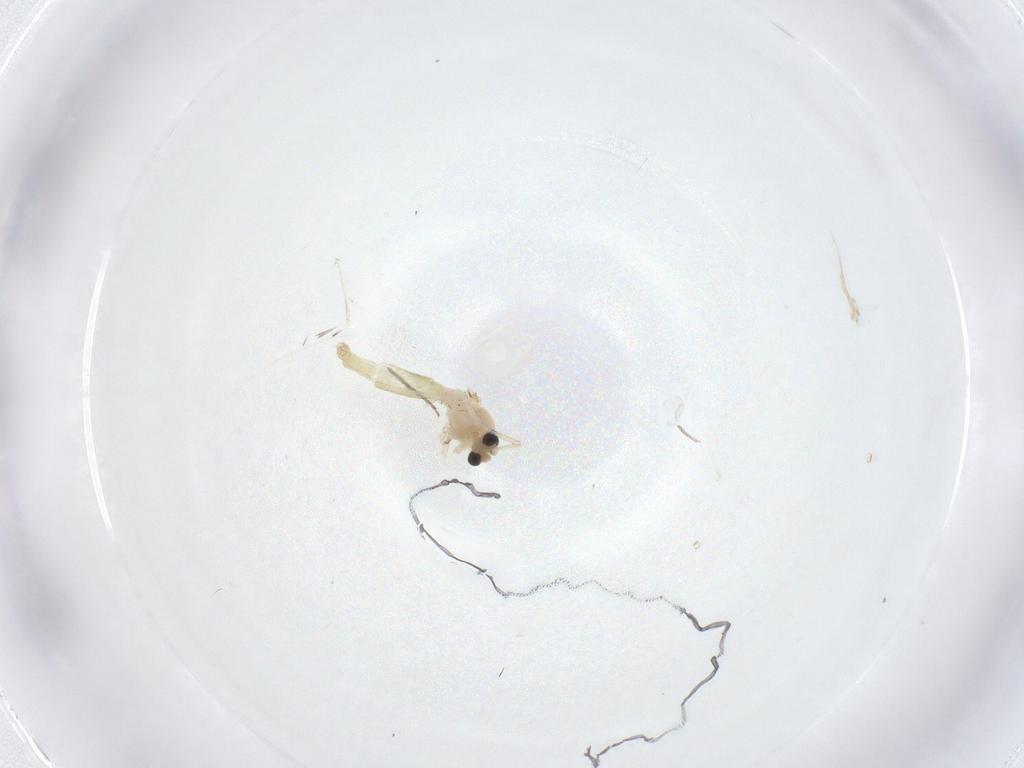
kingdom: Animalia
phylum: Arthropoda
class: Insecta
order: Diptera
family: Chironomidae
